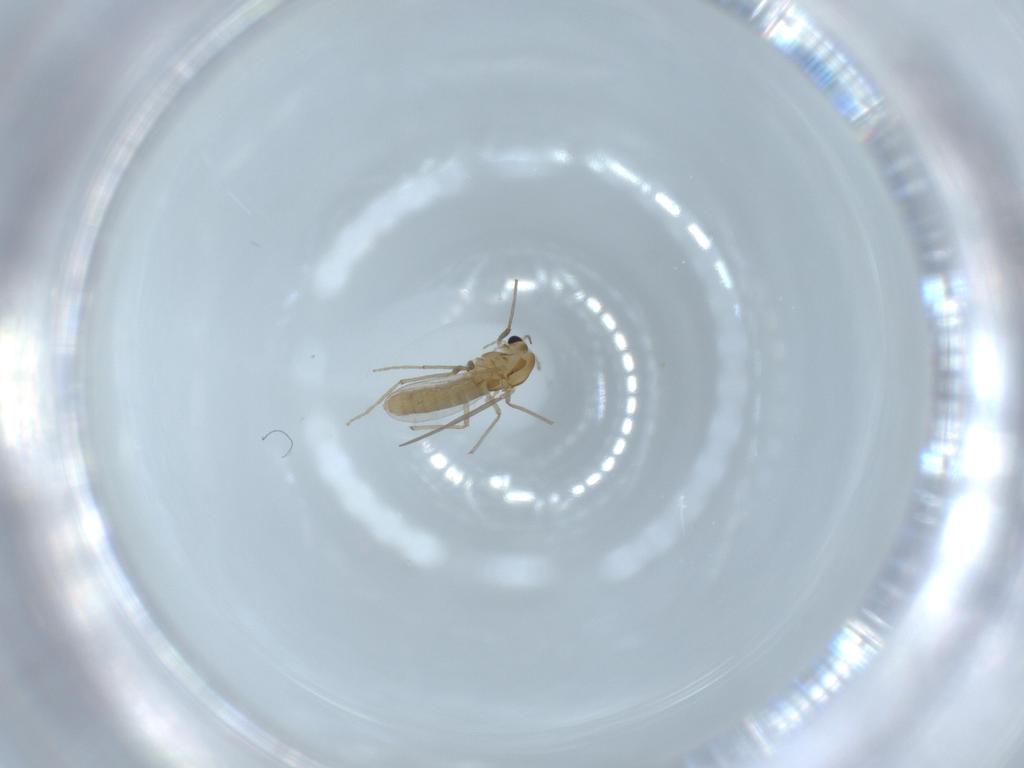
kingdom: Animalia
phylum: Arthropoda
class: Insecta
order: Diptera
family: Chironomidae
